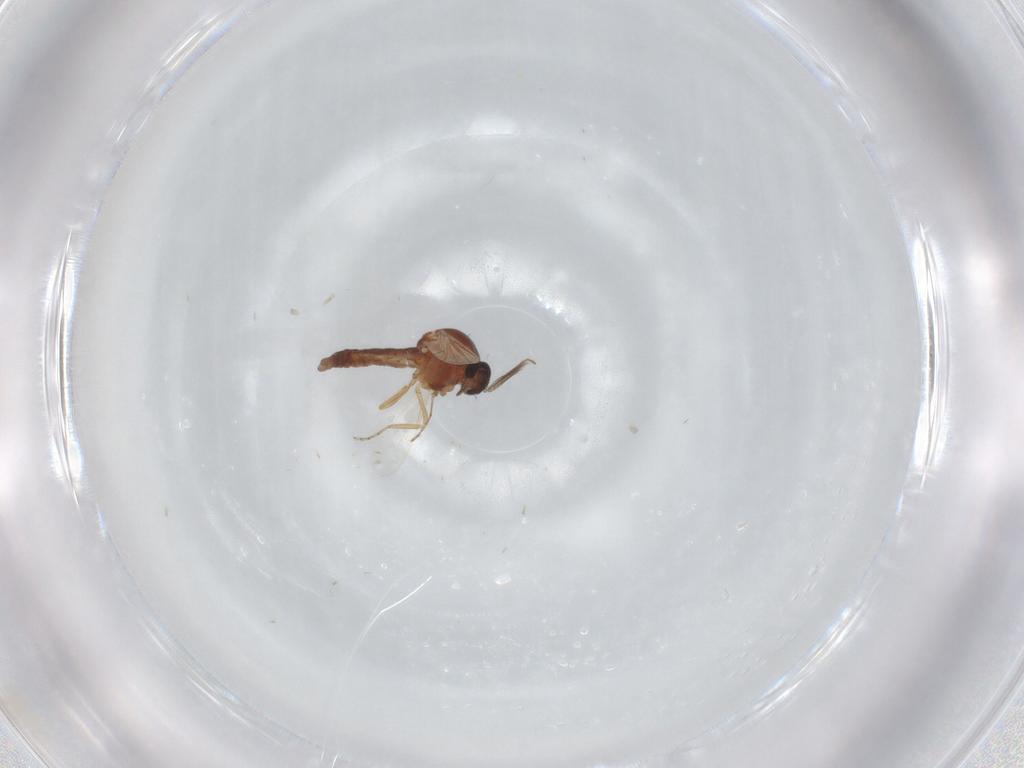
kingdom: Animalia
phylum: Arthropoda
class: Insecta
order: Diptera
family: Ceratopogonidae
